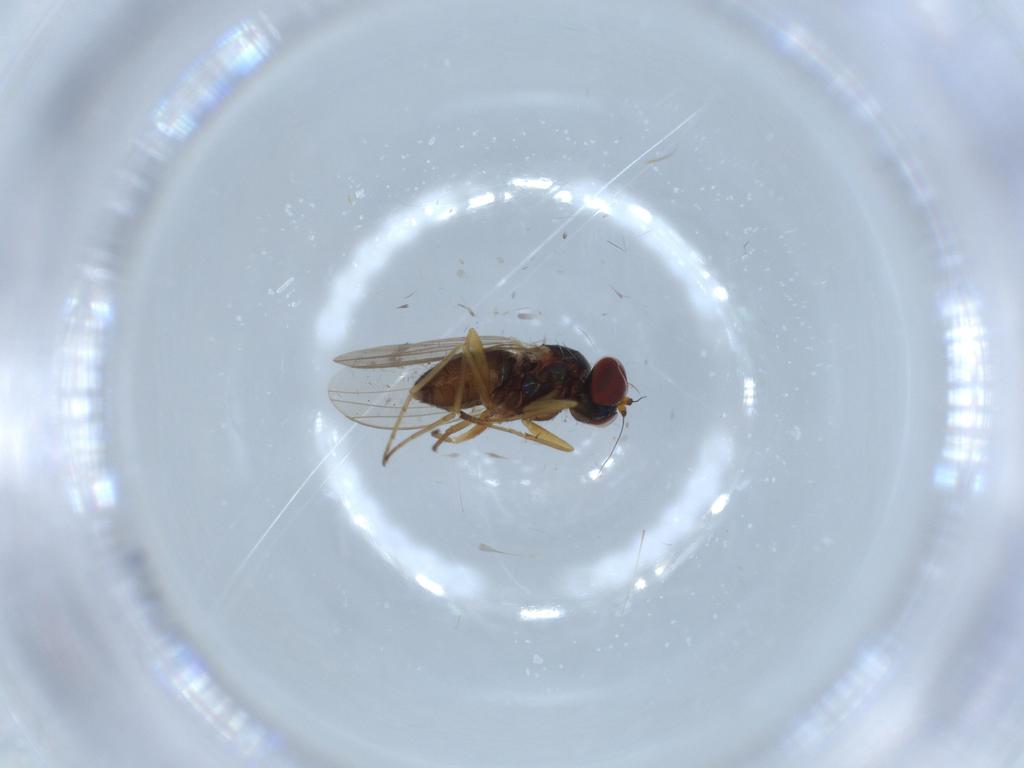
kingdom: Animalia
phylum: Arthropoda
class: Insecta
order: Diptera
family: Dolichopodidae
